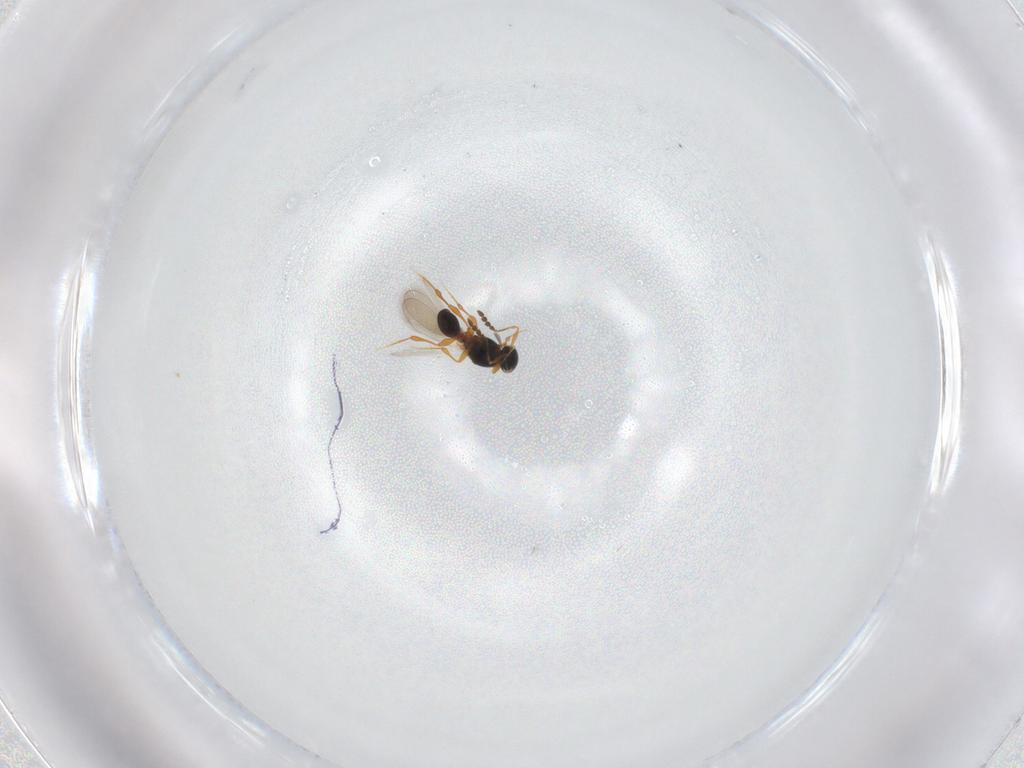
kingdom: Animalia
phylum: Arthropoda
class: Insecta
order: Hymenoptera
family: Platygastridae
